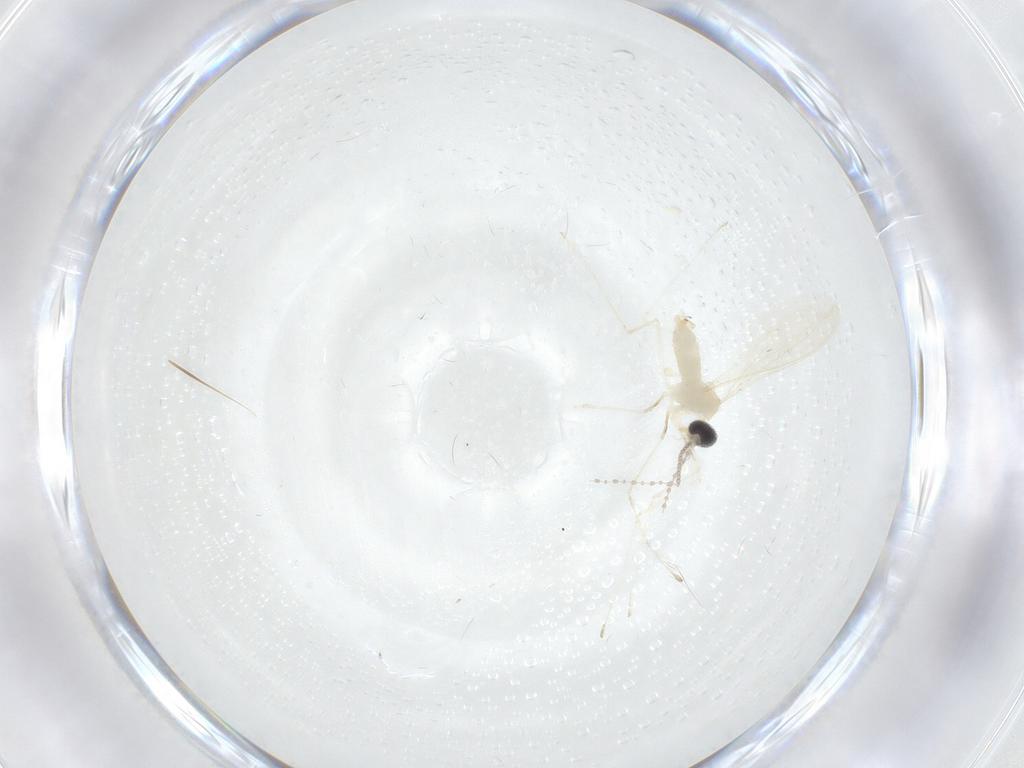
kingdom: Animalia
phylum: Arthropoda
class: Insecta
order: Diptera
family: Cecidomyiidae
